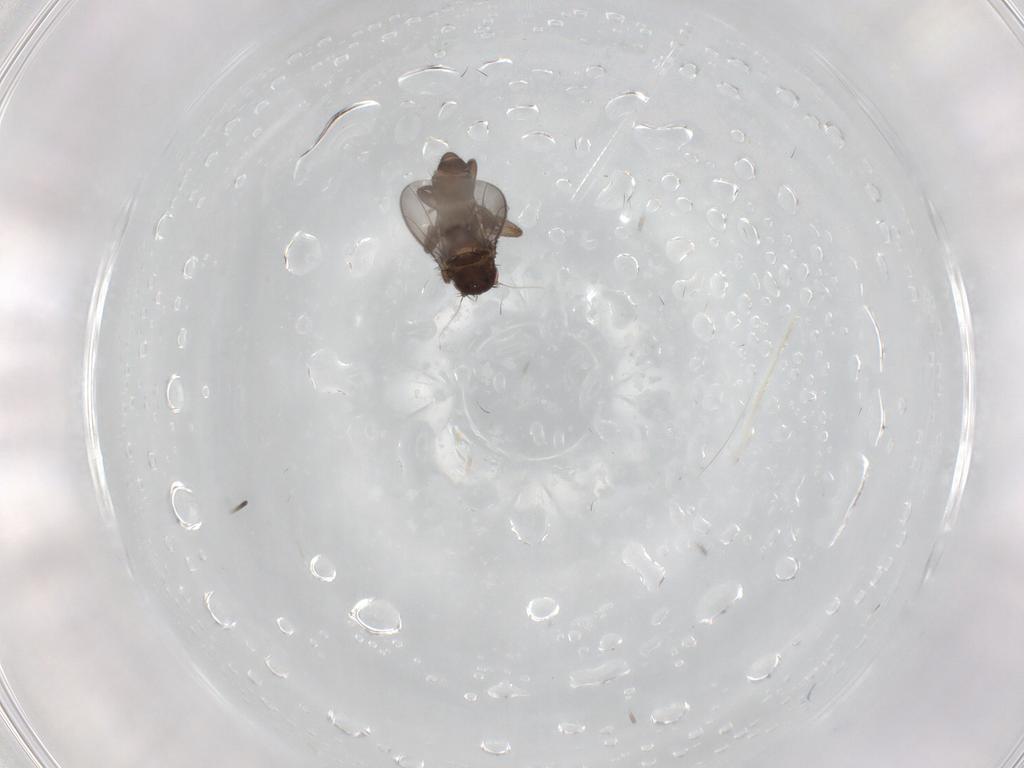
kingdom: Animalia
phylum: Arthropoda
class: Insecta
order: Diptera
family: Sphaeroceridae
